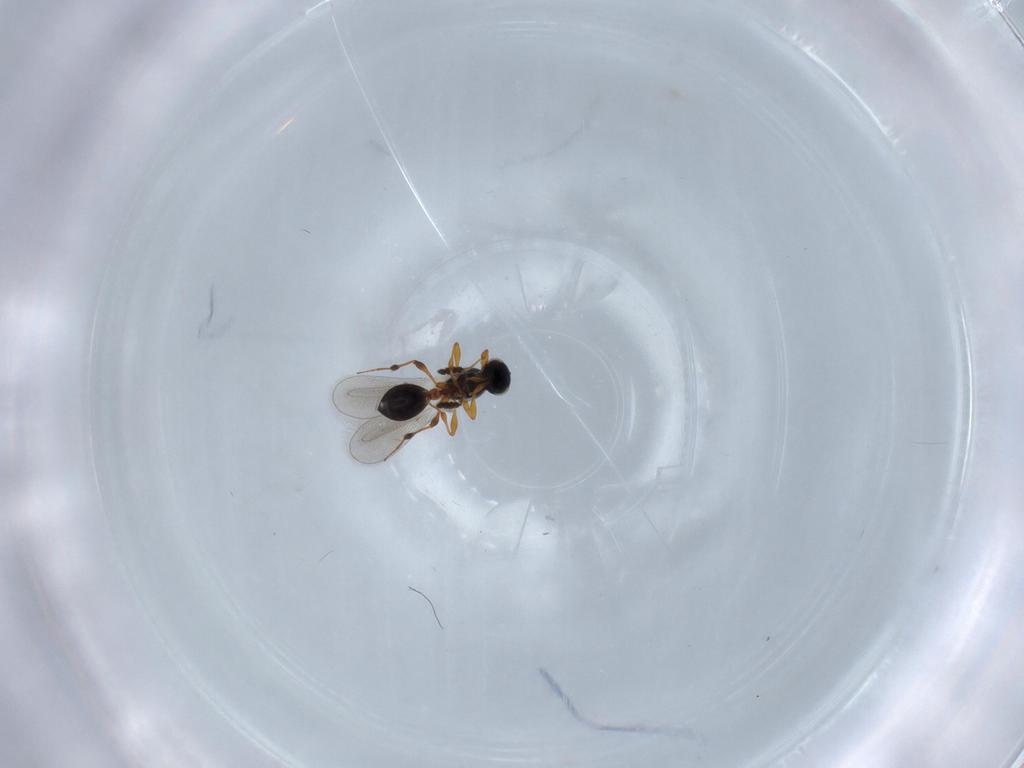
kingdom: Animalia
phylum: Arthropoda
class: Insecta
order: Hymenoptera
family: Platygastridae
